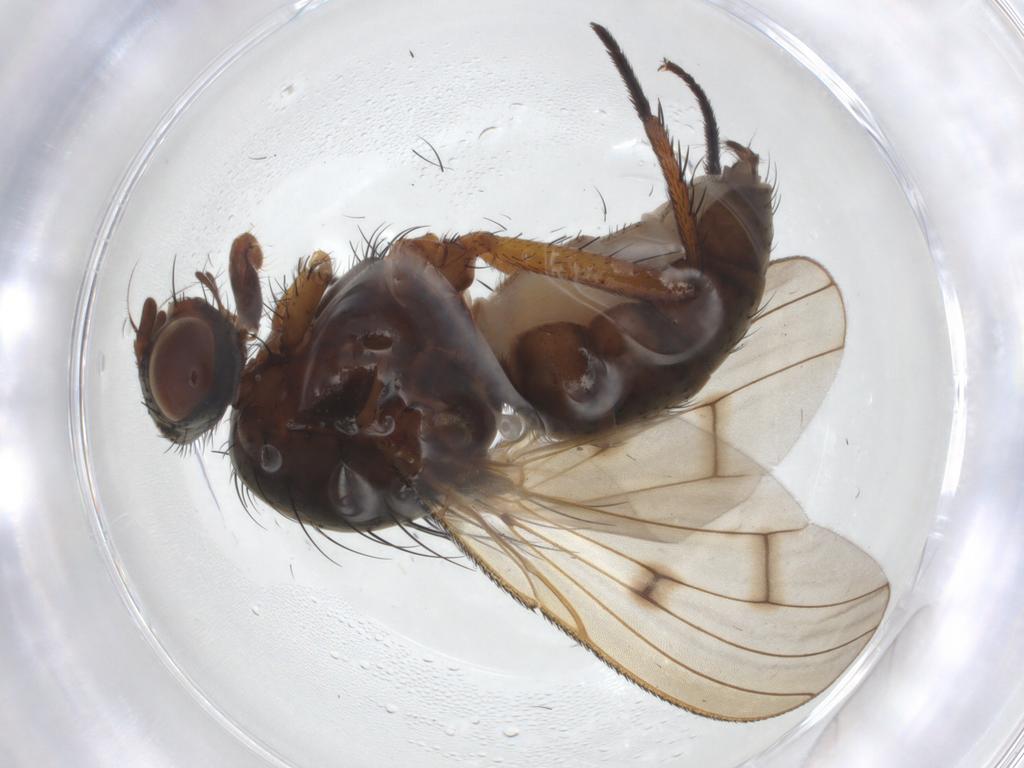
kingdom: Animalia
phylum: Arthropoda
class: Insecta
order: Diptera
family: Anthomyiidae
